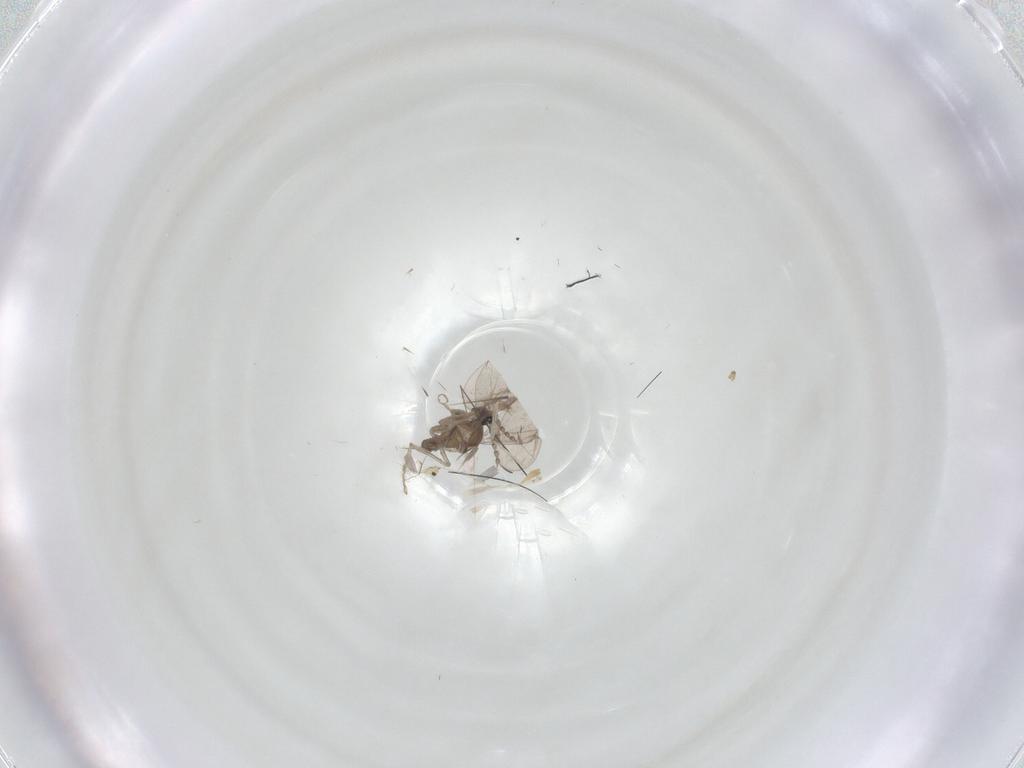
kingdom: Animalia
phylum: Arthropoda
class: Insecta
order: Diptera
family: Cecidomyiidae
